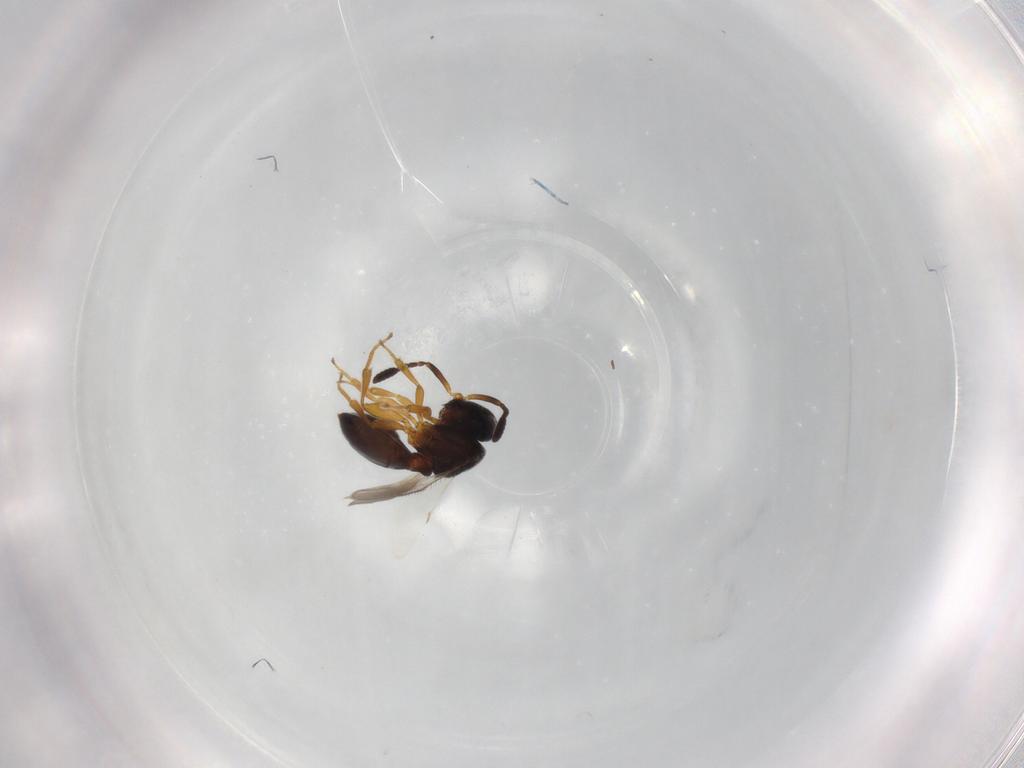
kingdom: Animalia
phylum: Arthropoda
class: Insecta
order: Hymenoptera
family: Scelionidae
